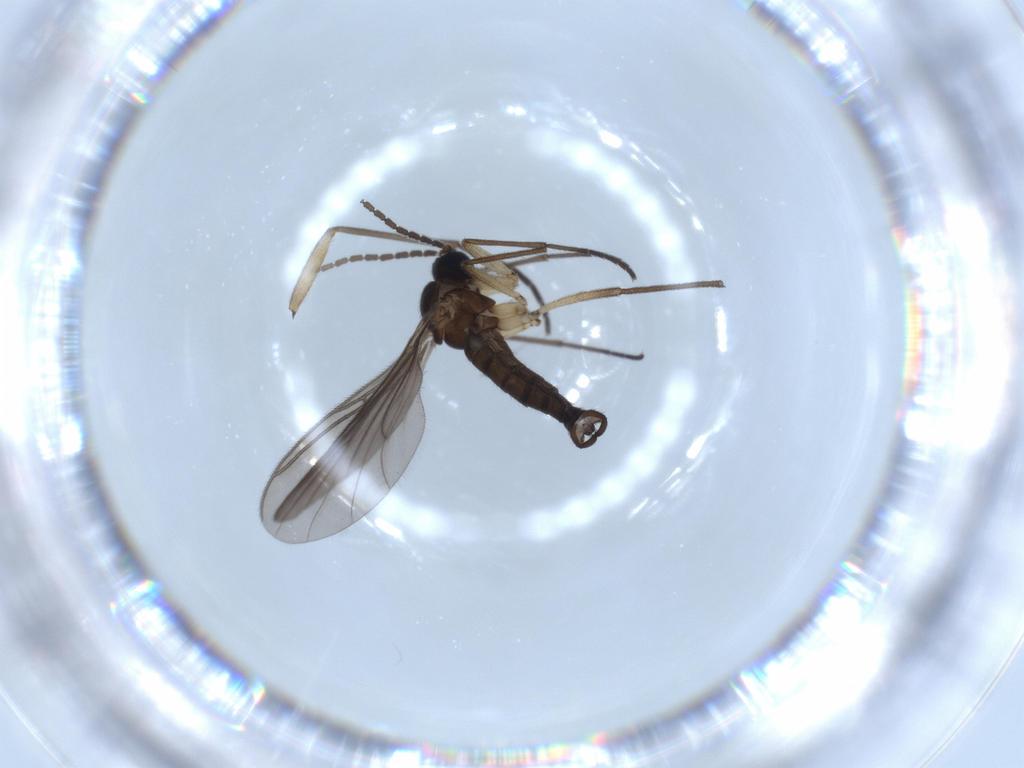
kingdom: Animalia
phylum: Arthropoda
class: Insecta
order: Diptera
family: Sciaridae
